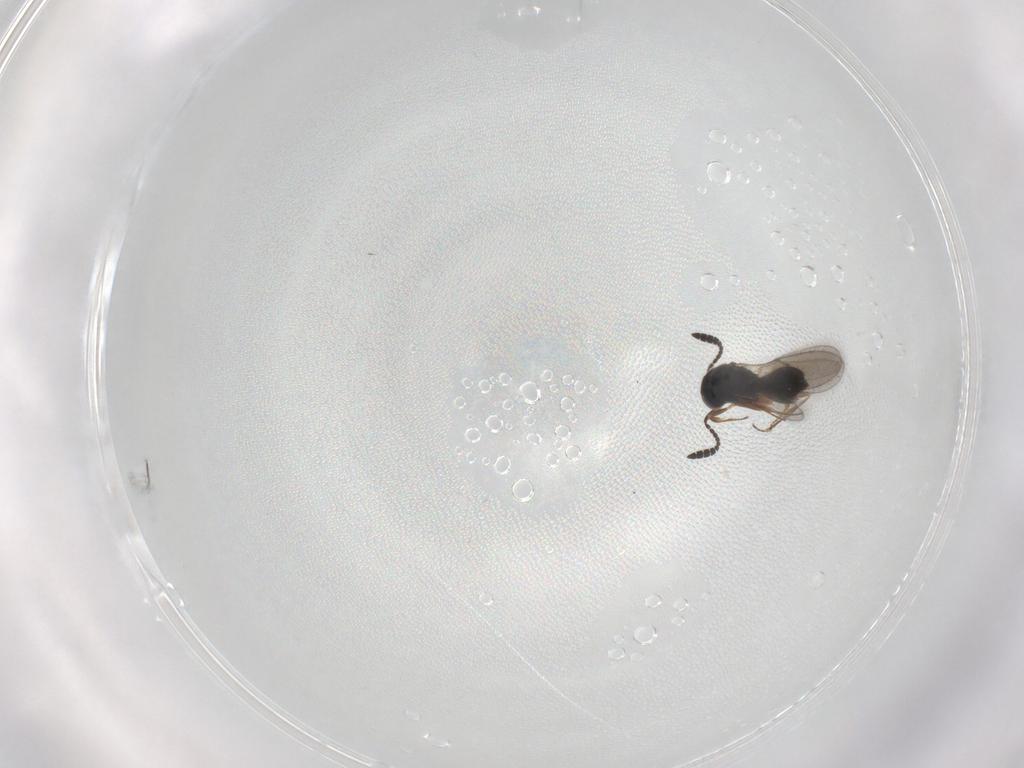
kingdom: Animalia
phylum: Arthropoda
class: Insecta
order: Hymenoptera
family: Scelionidae
